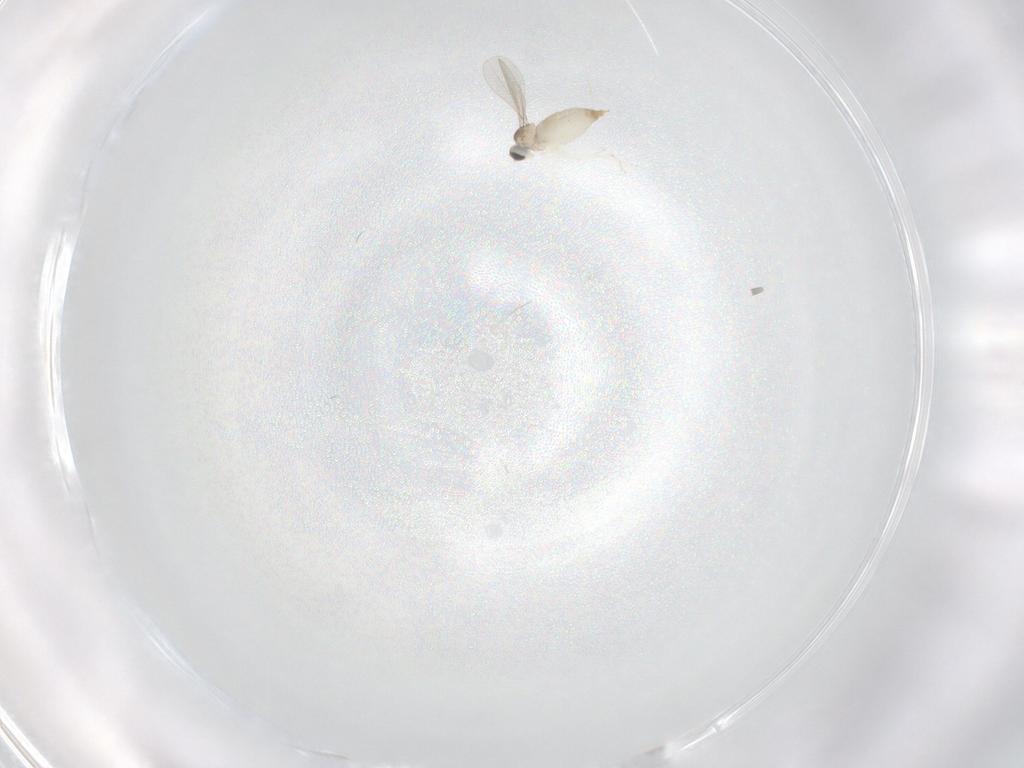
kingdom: Animalia
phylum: Arthropoda
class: Insecta
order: Diptera
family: Cecidomyiidae
